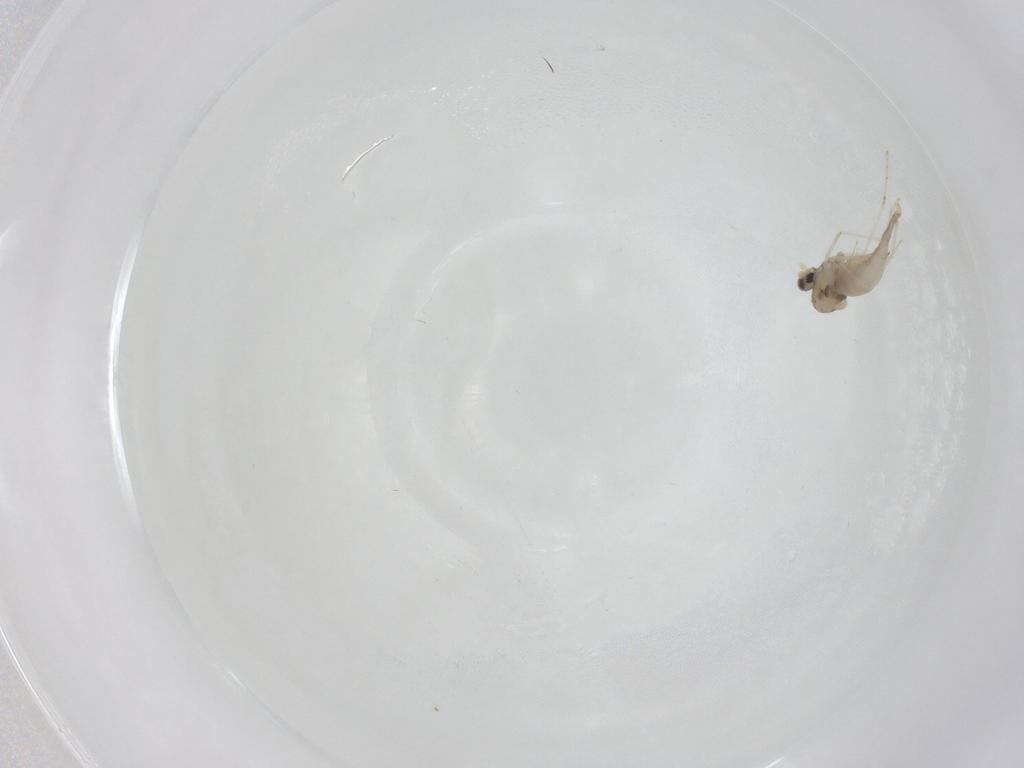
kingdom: Animalia
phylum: Arthropoda
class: Insecta
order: Diptera
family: Cecidomyiidae
